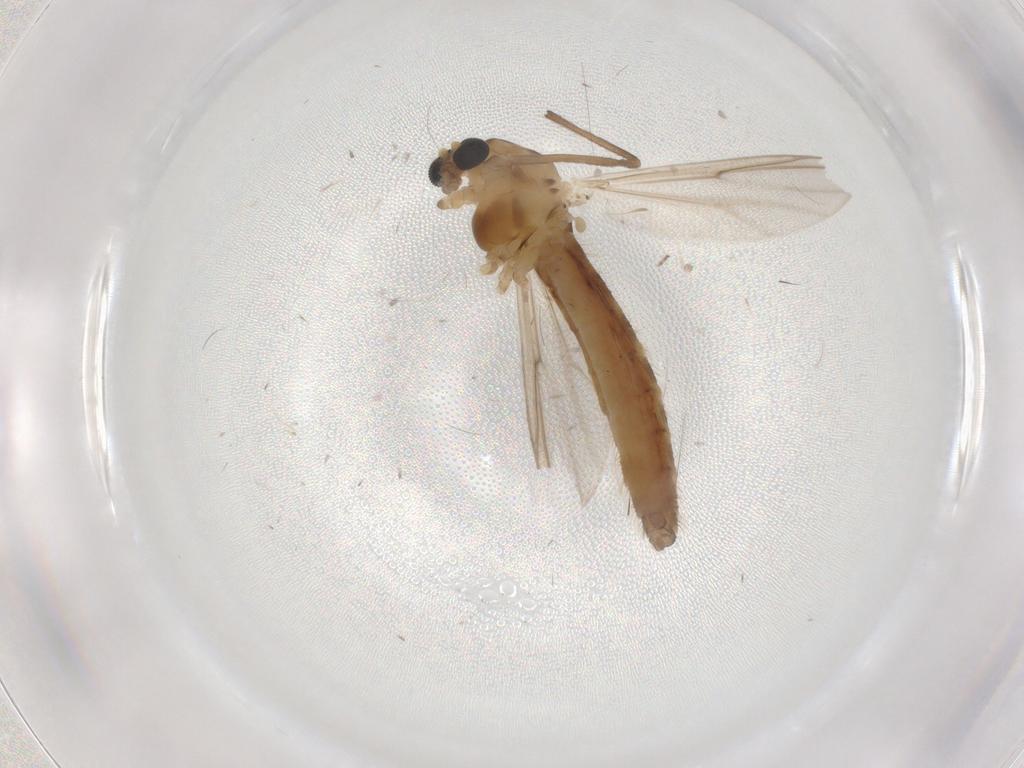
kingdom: Animalia
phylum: Arthropoda
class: Insecta
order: Diptera
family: Chironomidae
